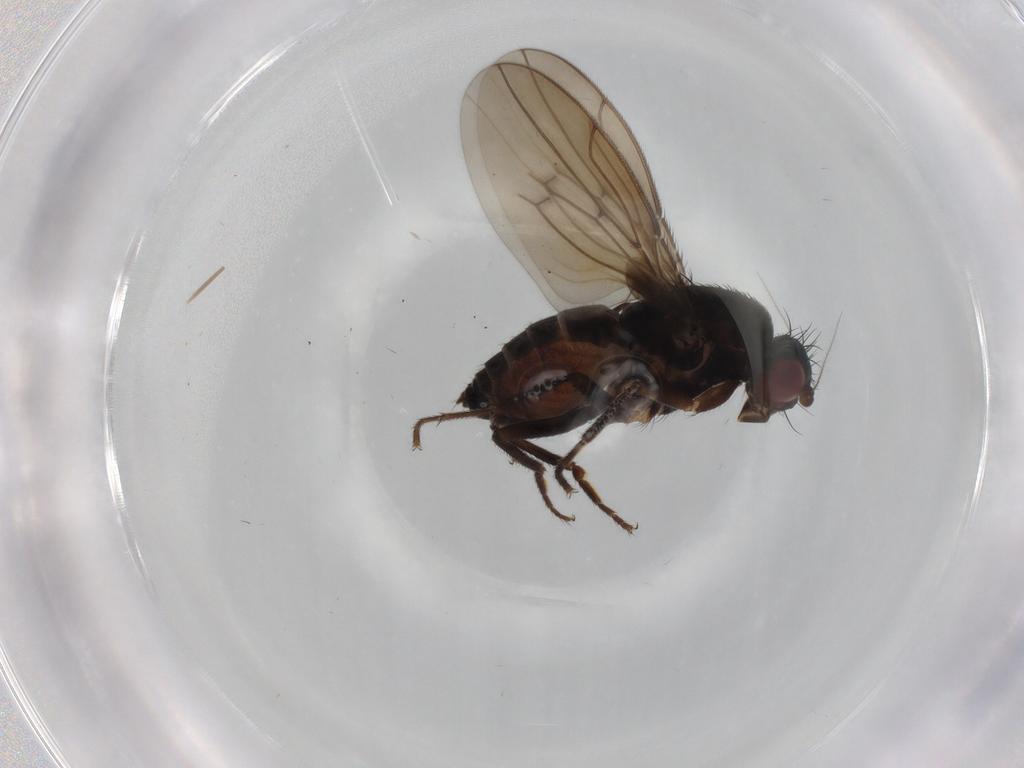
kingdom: Animalia
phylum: Arthropoda
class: Insecta
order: Diptera
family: Sphaeroceridae
